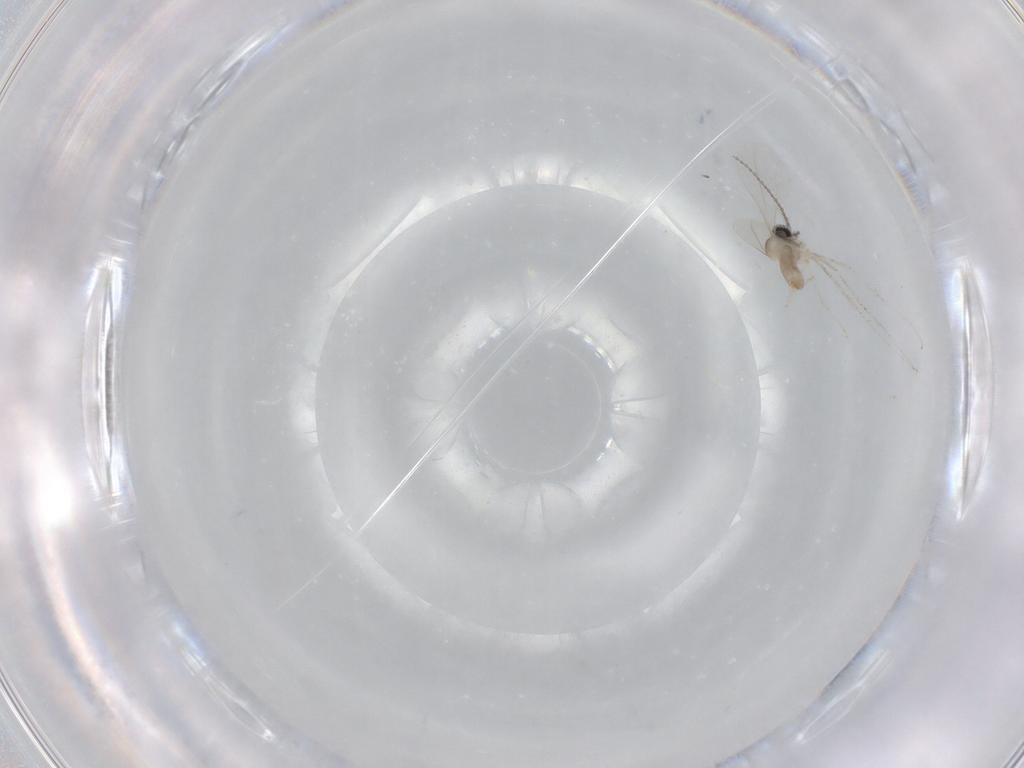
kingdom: Animalia
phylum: Arthropoda
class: Insecta
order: Diptera
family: Cecidomyiidae
